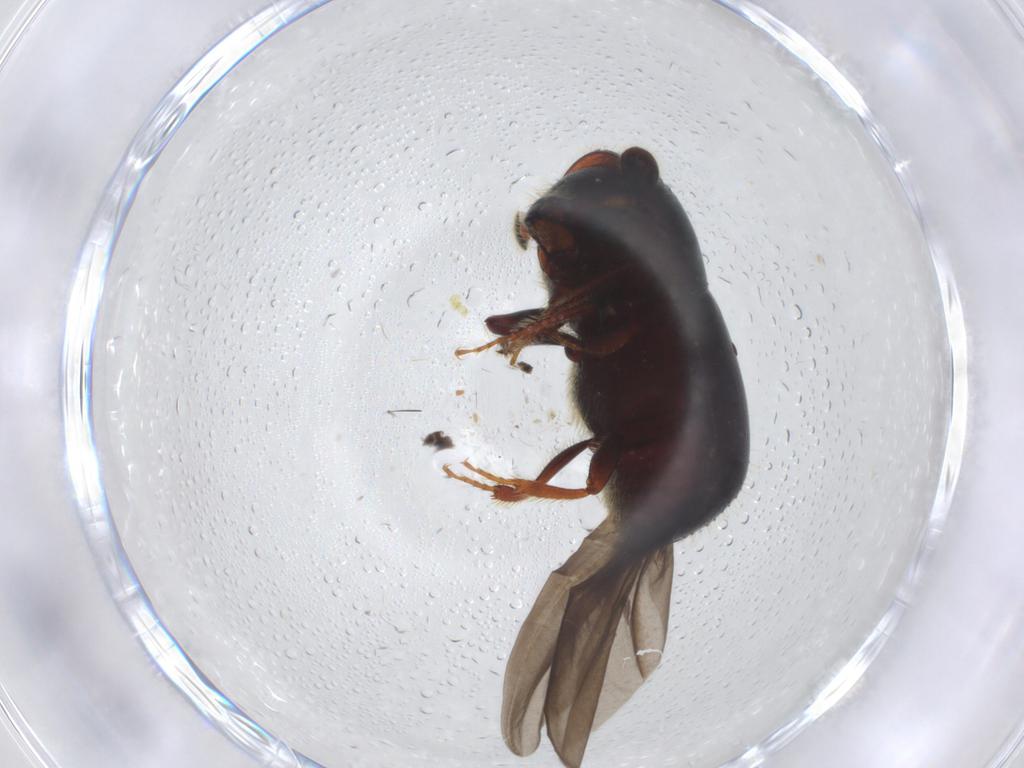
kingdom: Animalia
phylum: Arthropoda
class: Insecta
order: Coleoptera
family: Curculionidae
